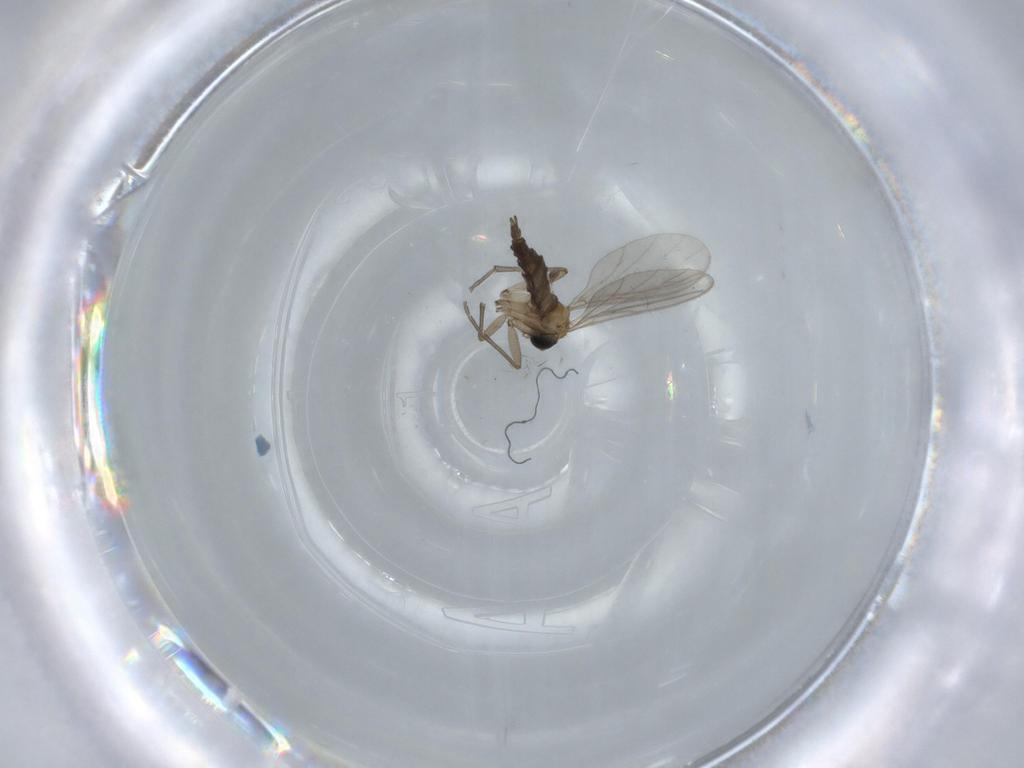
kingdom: Animalia
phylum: Arthropoda
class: Insecta
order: Diptera
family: Sciaridae
